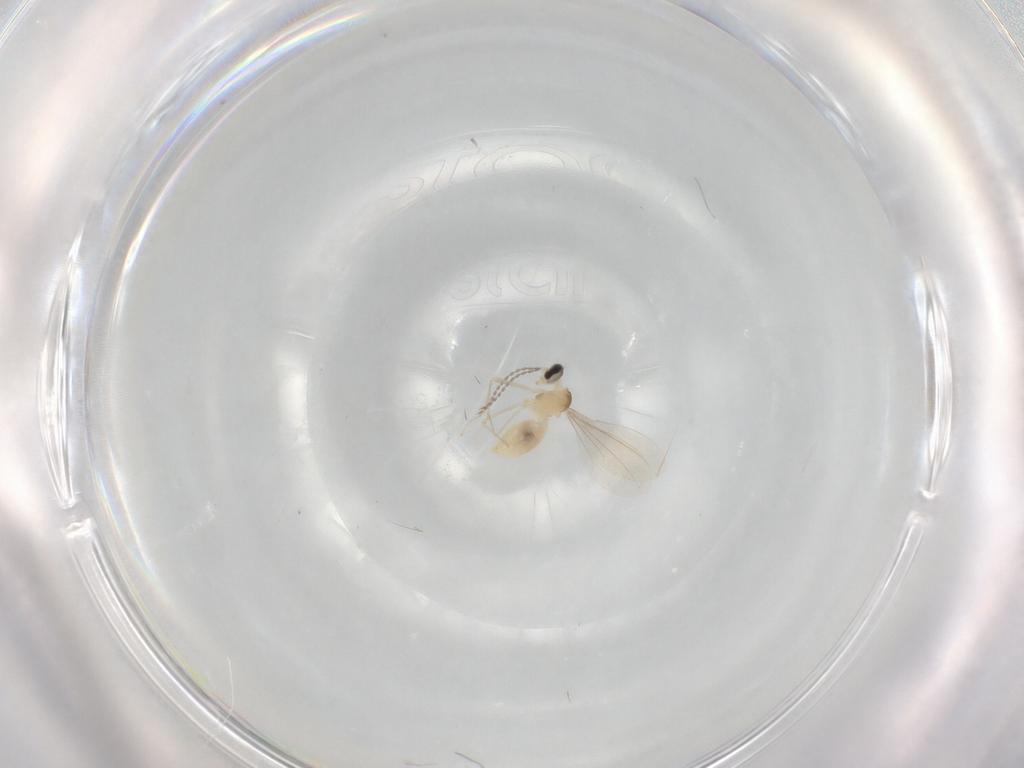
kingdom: Animalia
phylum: Arthropoda
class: Insecta
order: Diptera
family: Cecidomyiidae
